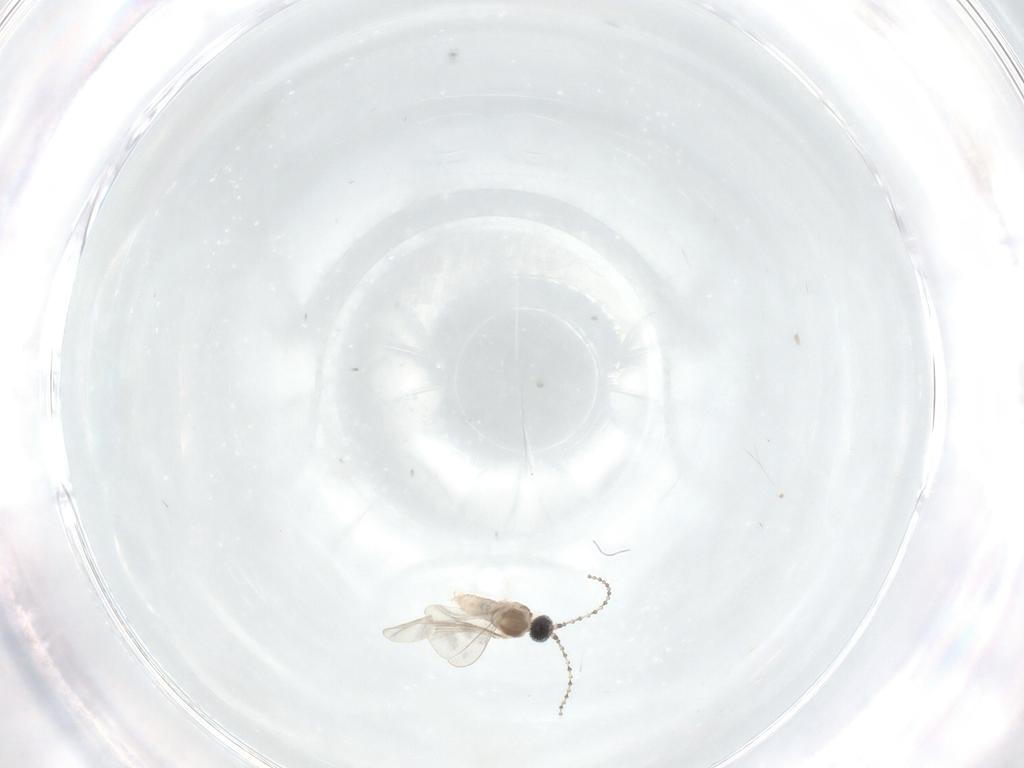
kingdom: Animalia
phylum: Arthropoda
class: Insecta
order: Diptera
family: Cecidomyiidae
